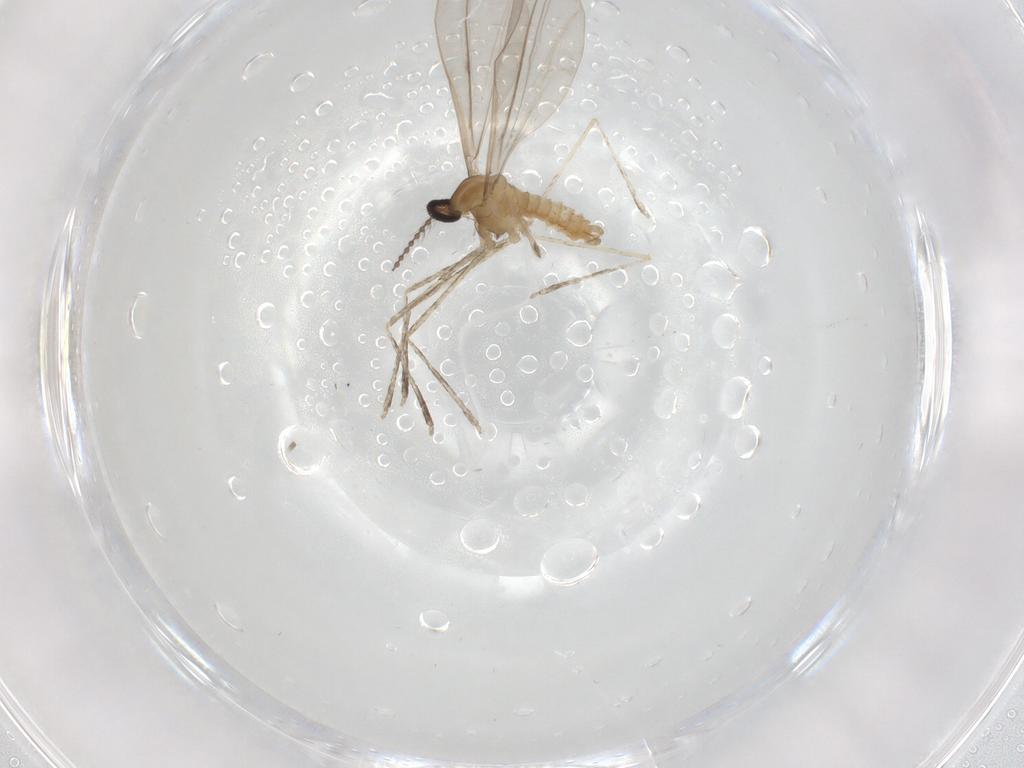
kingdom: Animalia
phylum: Arthropoda
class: Insecta
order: Diptera
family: Cecidomyiidae
